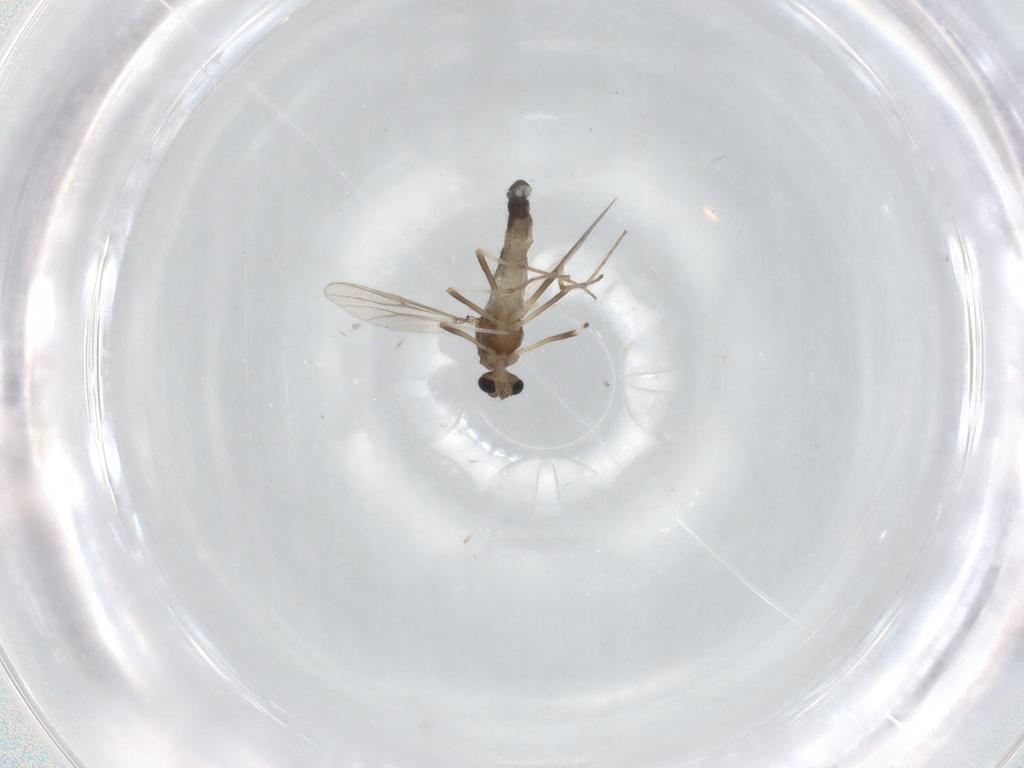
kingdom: Animalia
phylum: Arthropoda
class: Insecta
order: Diptera
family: Chironomidae
